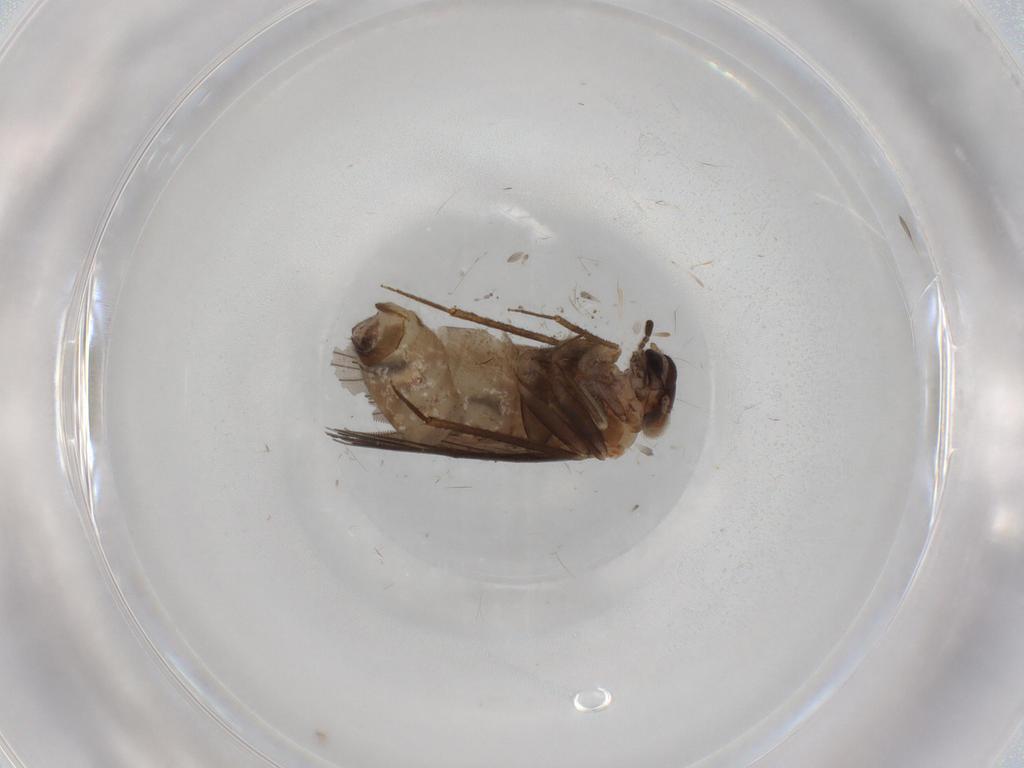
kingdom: Animalia
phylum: Arthropoda
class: Insecta
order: Psocodea
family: Lepidopsocidae
